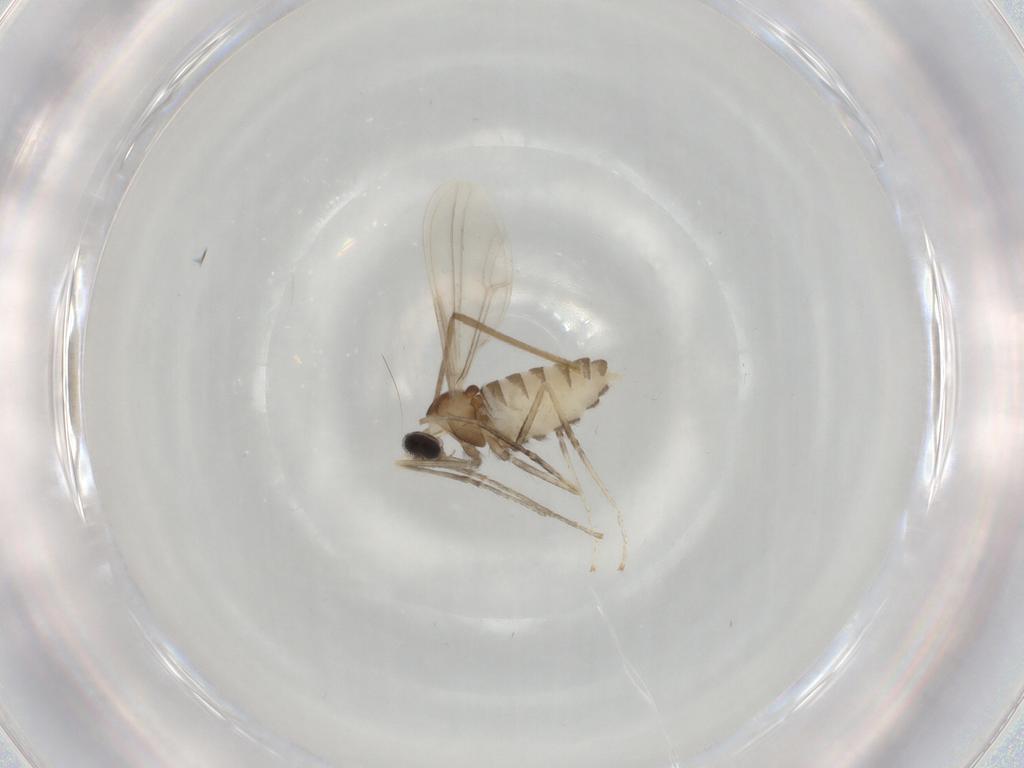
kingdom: Animalia
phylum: Arthropoda
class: Insecta
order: Diptera
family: Cecidomyiidae
